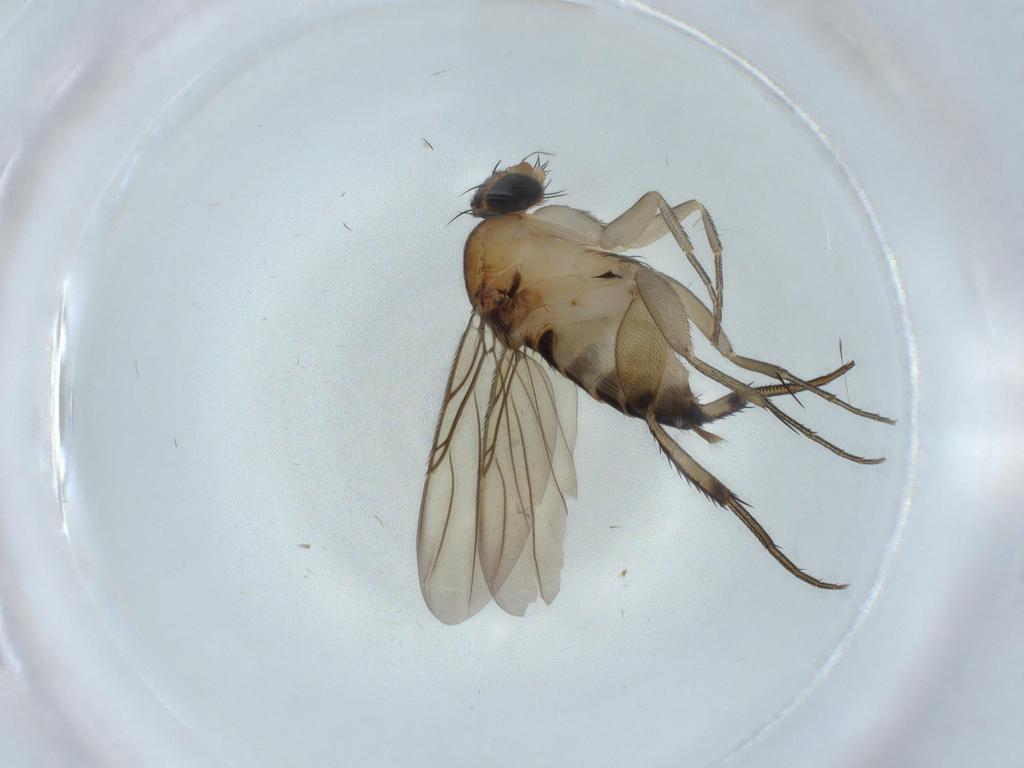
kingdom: Animalia
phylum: Arthropoda
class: Insecta
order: Diptera
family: Psychodidae
